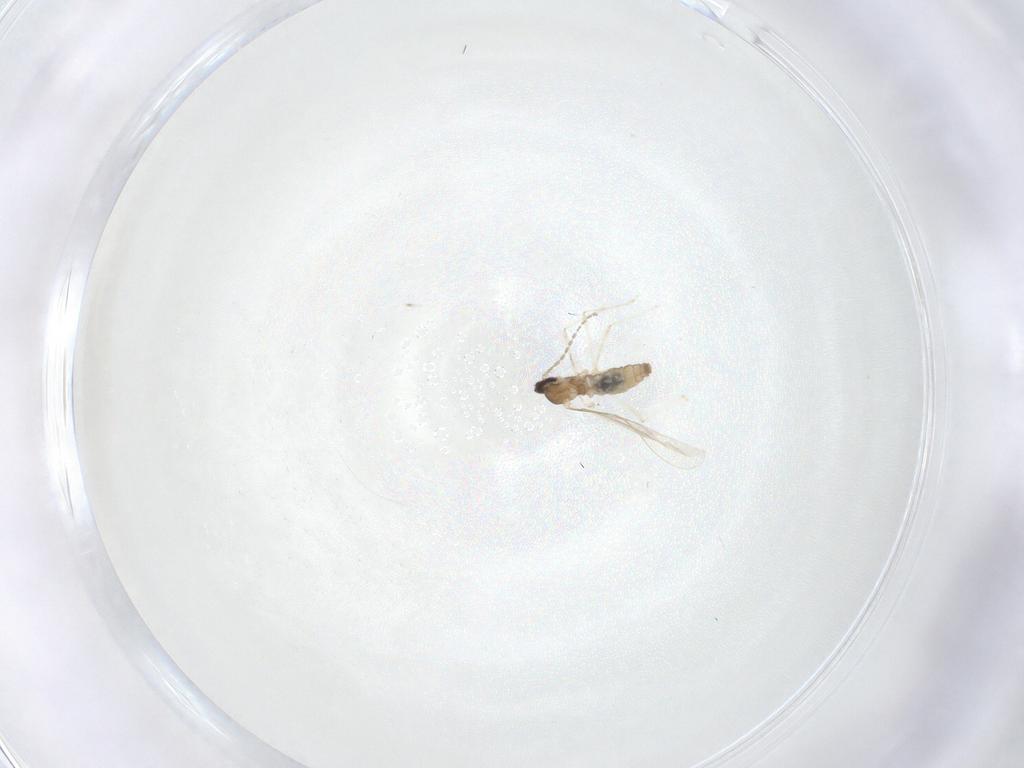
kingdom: Animalia
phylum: Arthropoda
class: Insecta
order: Diptera
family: Cecidomyiidae
